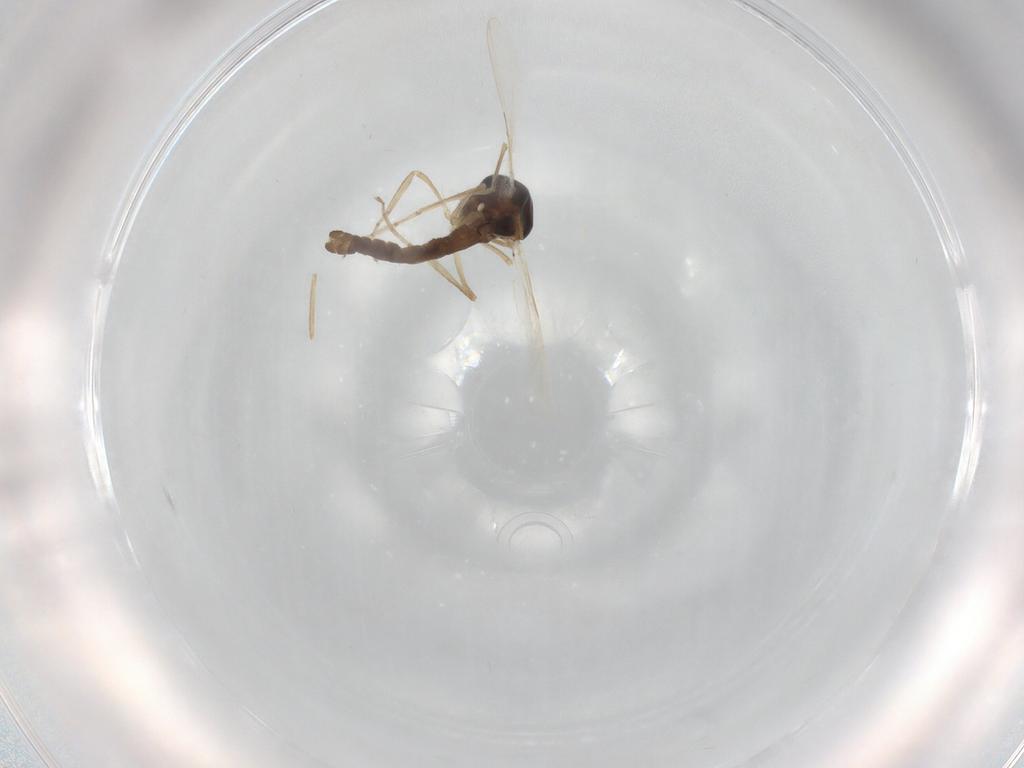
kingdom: Animalia
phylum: Arthropoda
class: Insecta
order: Diptera
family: Ceratopogonidae
